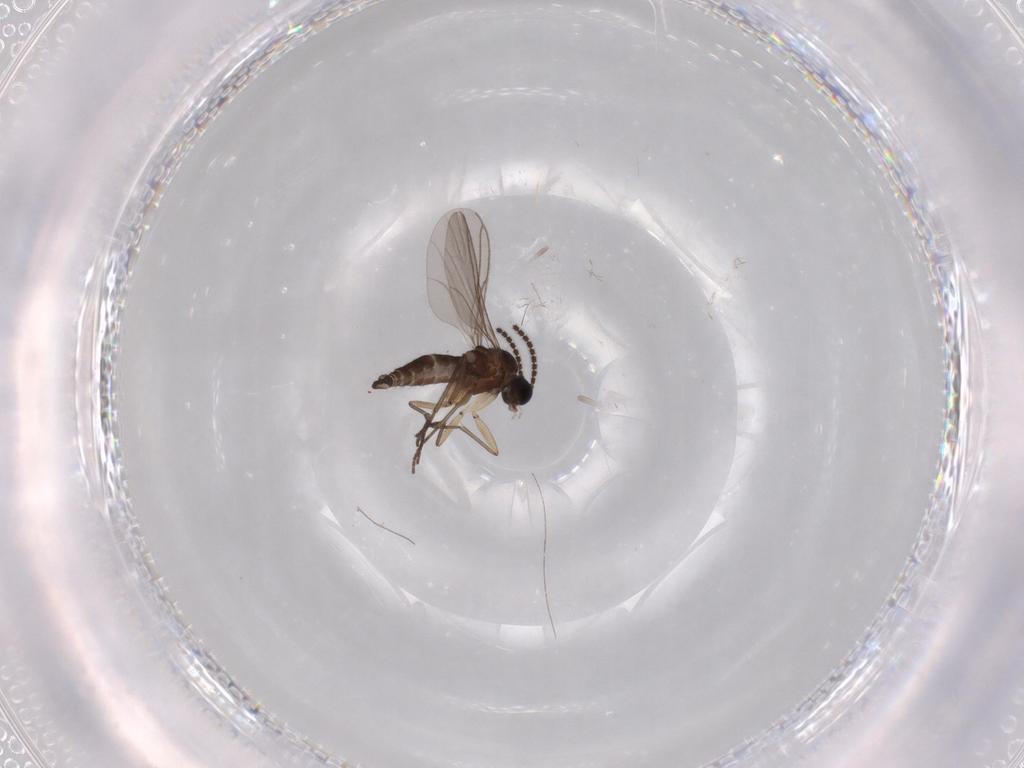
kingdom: Animalia
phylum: Arthropoda
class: Insecta
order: Diptera
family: Sciaridae
